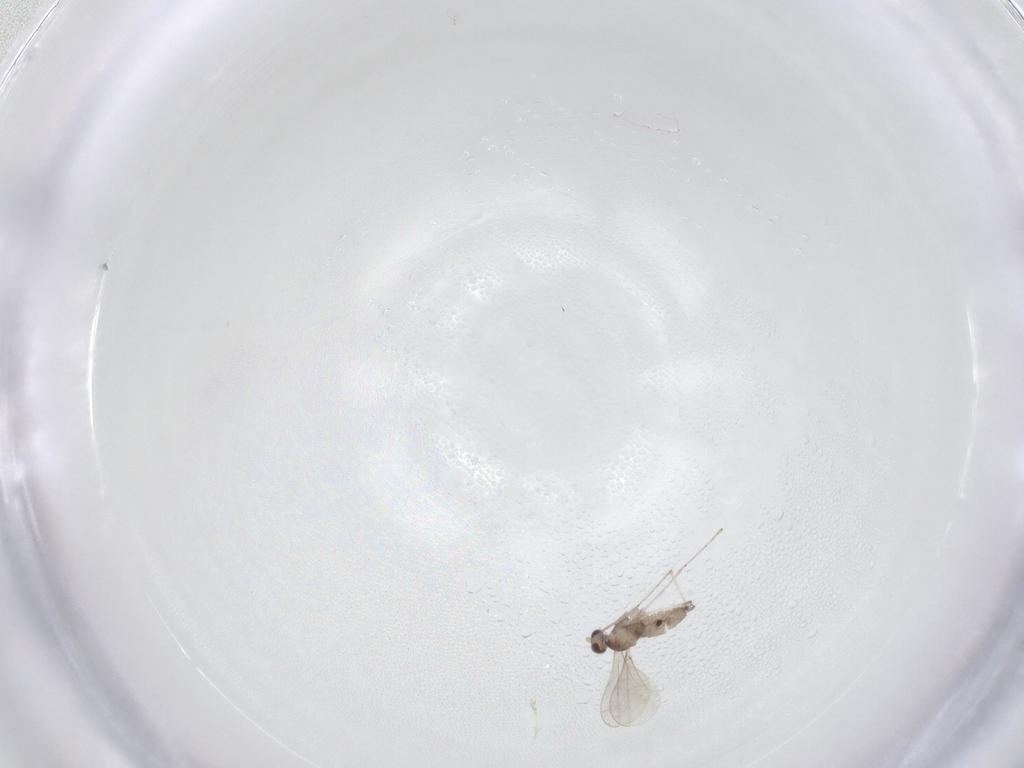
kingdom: Animalia
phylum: Arthropoda
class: Insecta
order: Diptera
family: Cecidomyiidae
